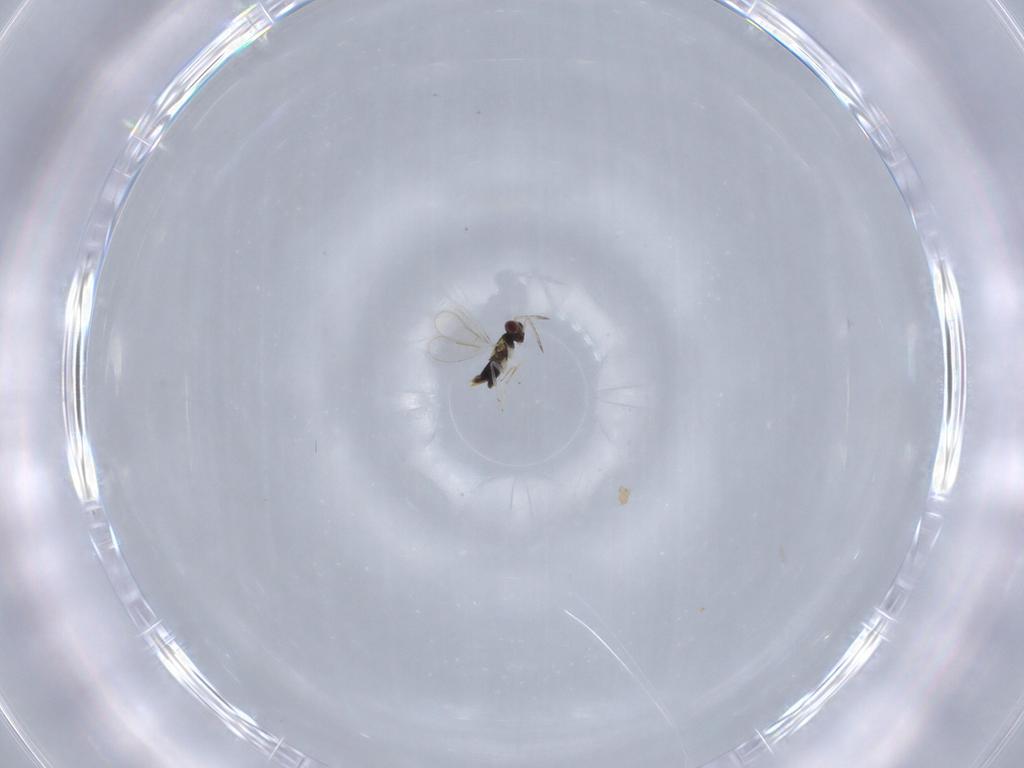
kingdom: Animalia
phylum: Arthropoda
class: Insecta
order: Hymenoptera
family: Aphelinidae
